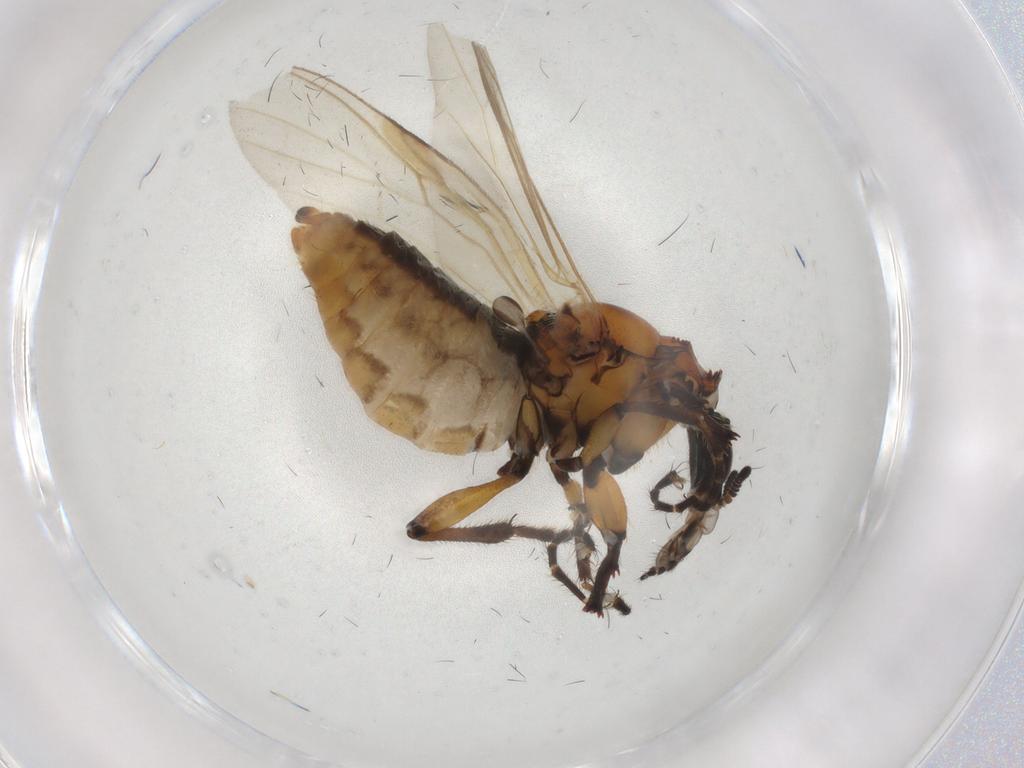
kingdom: Animalia
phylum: Arthropoda
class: Insecta
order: Diptera
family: Bibionidae
